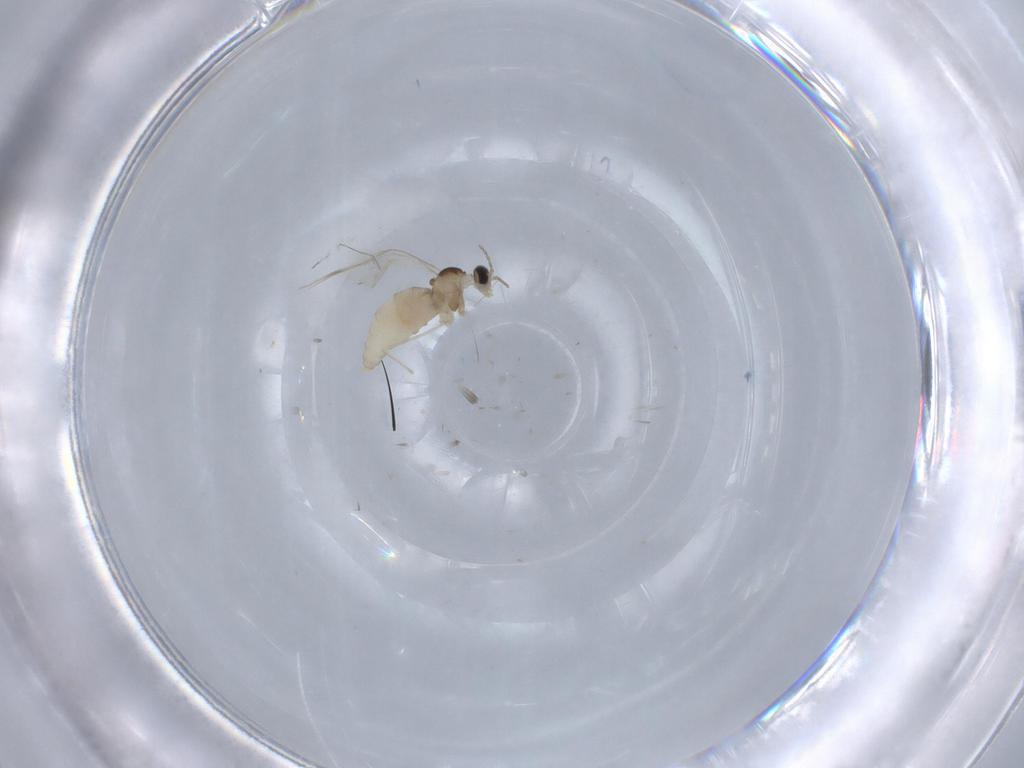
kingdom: Animalia
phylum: Arthropoda
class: Insecta
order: Diptera
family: Cecidomyiidae
